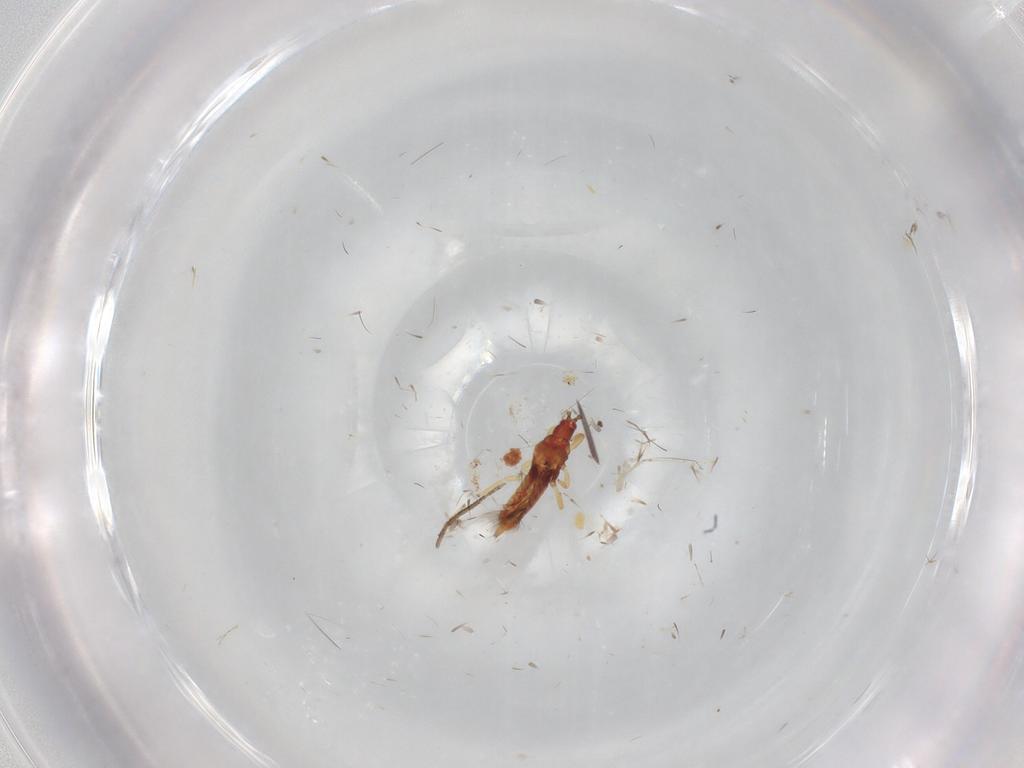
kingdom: Animalia
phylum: Arthropoda
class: Insecta
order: Thysanoptera
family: Phlaeothripidae
